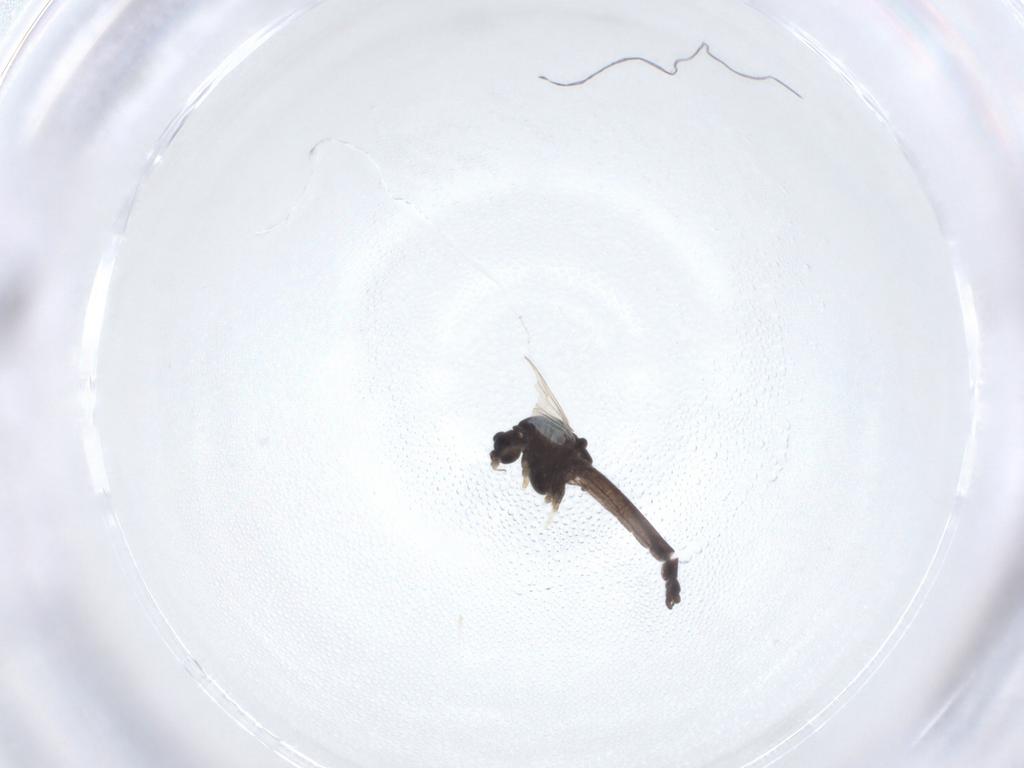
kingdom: Animalia
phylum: Arthropoda
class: Insecta
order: Diptera
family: Chironomidae
